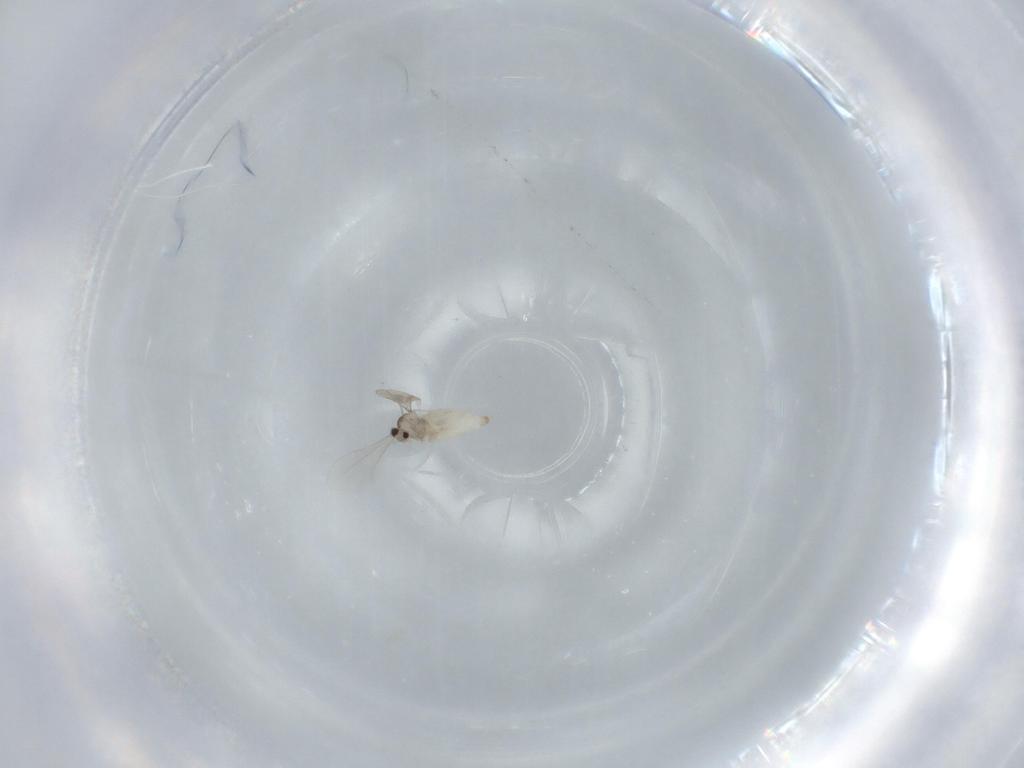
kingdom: Animalia
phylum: Arthropoda
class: Insecta
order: Diptera
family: Cecidomyiidae
